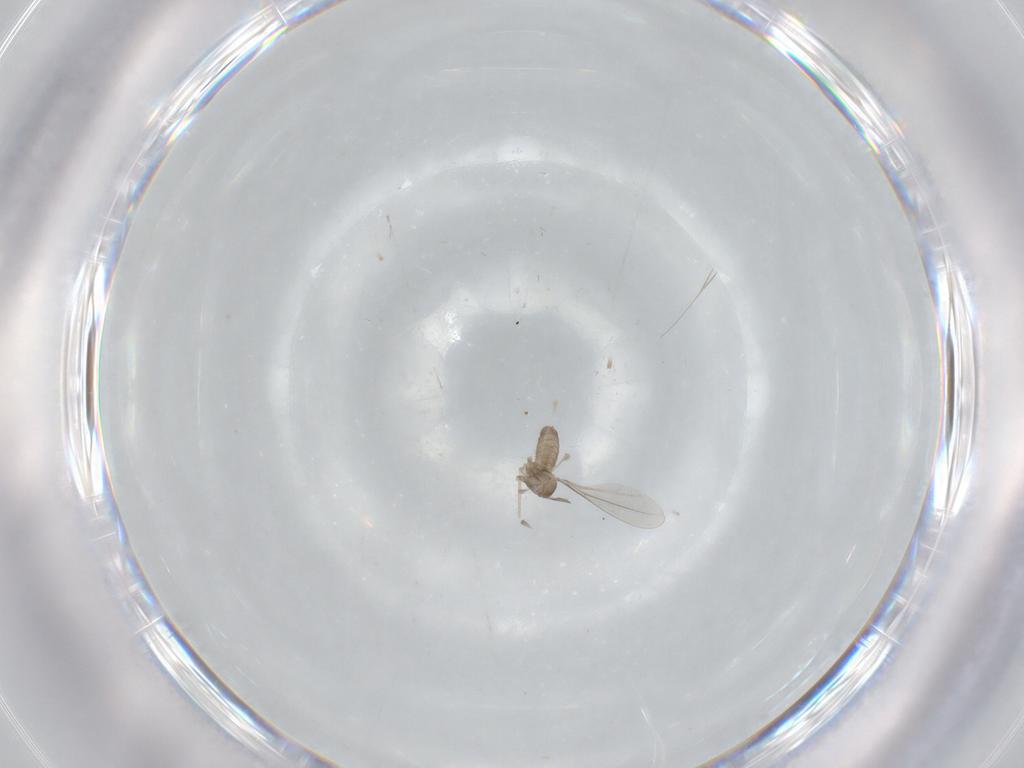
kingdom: Animalia
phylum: Arthropoda
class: Insecta
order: Diptera
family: Cecidomyiidae
